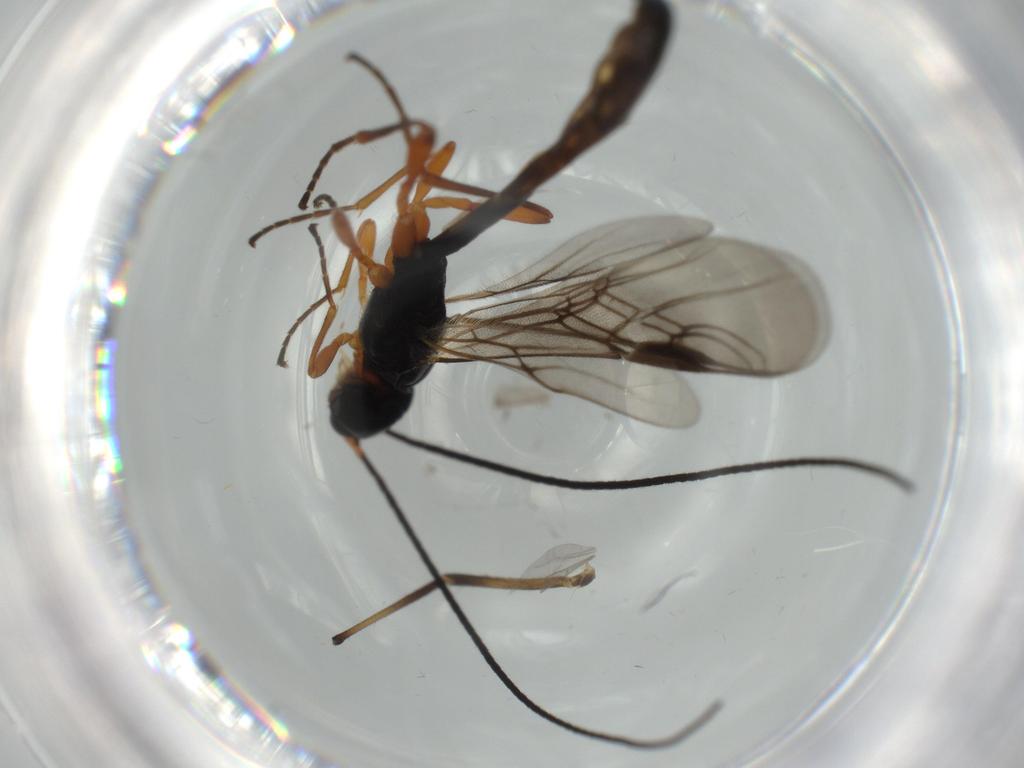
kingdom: Animalia
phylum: Arthropoda
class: Insecta
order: Hymenoptera
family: Braconidae
